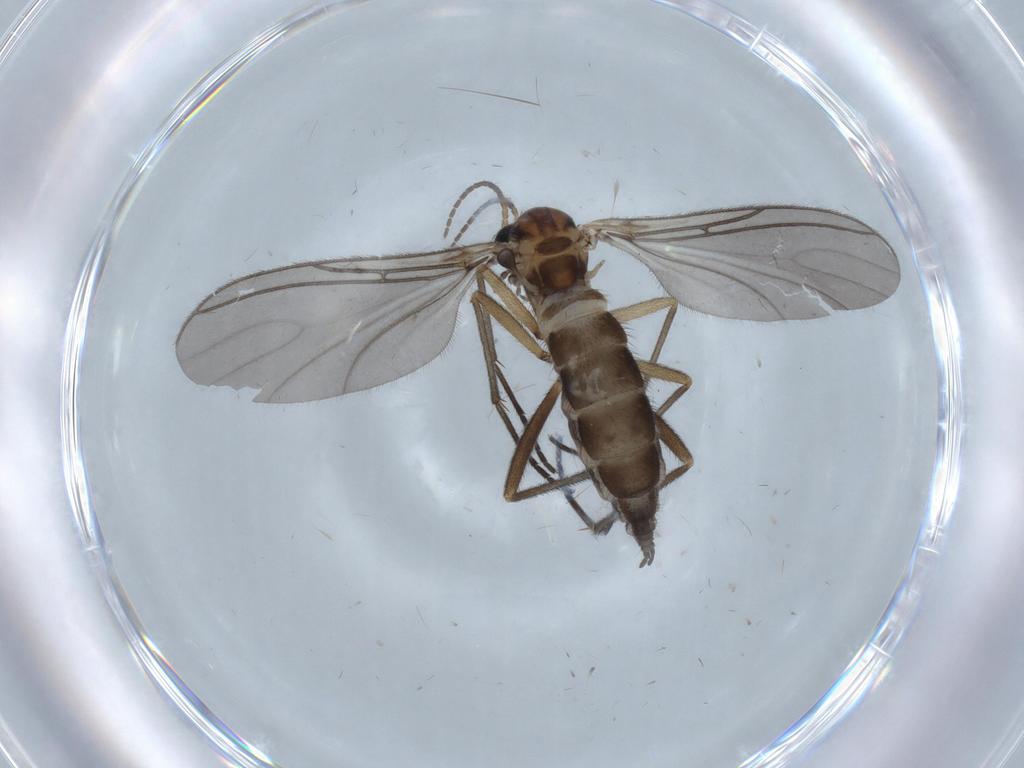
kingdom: Animalia
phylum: Arthropoda
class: Insecta
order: Diptera
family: Sciaridae
